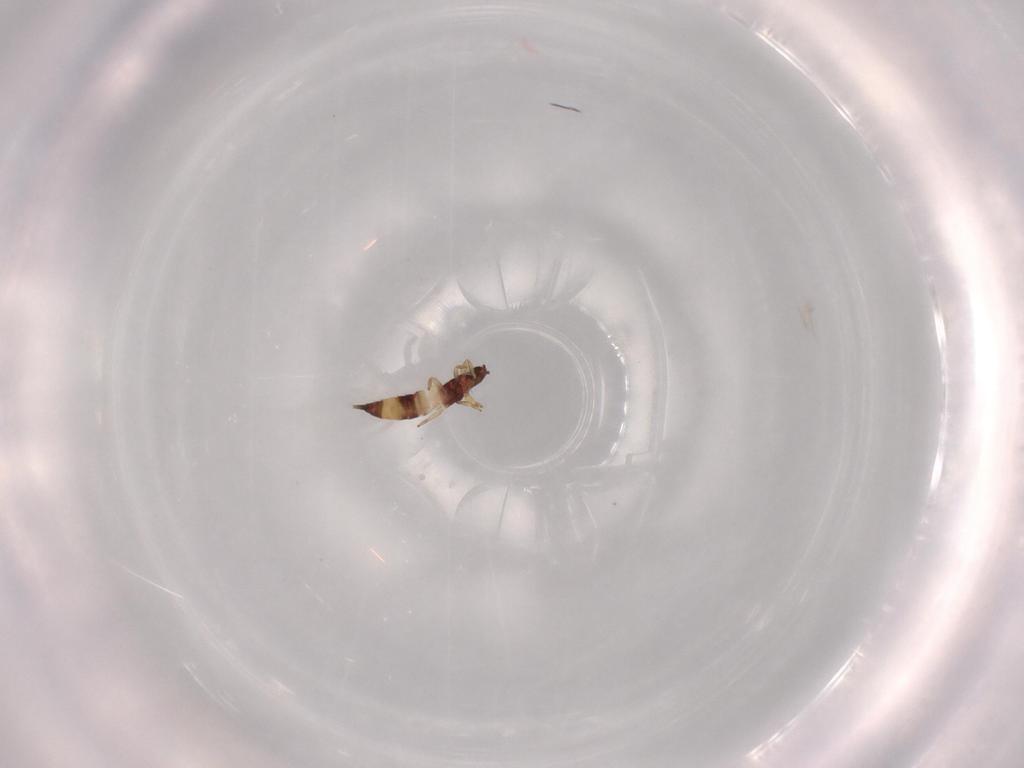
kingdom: Animalia
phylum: Arthropoda
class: Insecta
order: Thysanoptera
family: Phlaeothripidae
